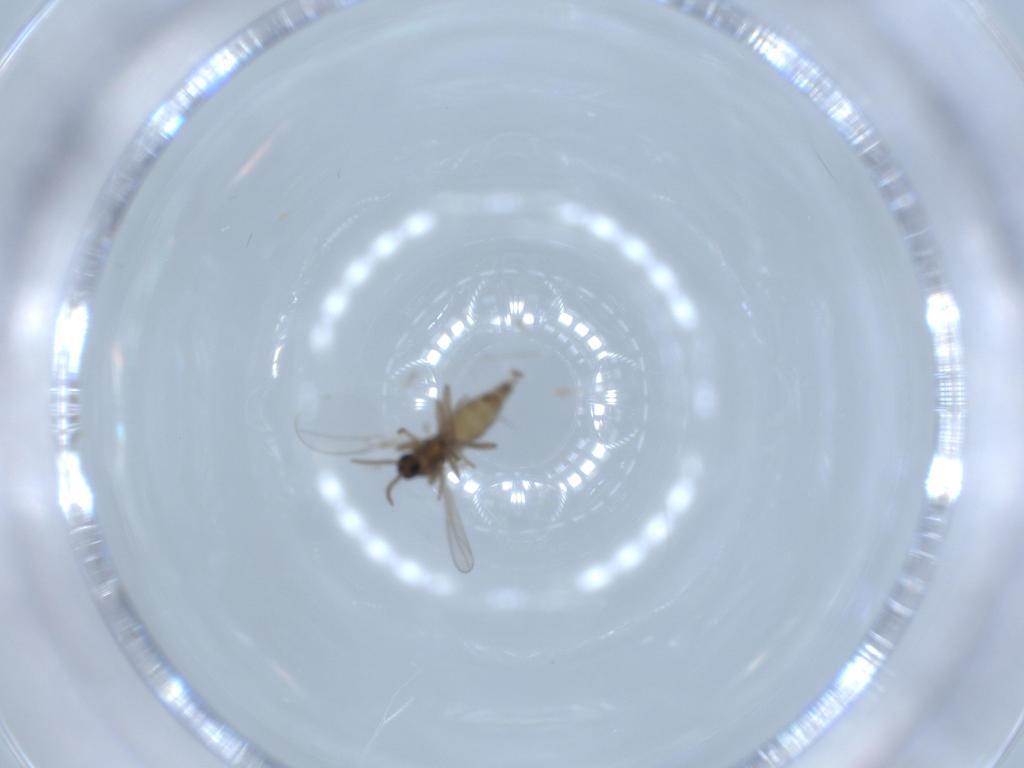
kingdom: Animalia
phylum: Arthropoda
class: Insecta
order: Diptera
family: Cecidomyiidae
